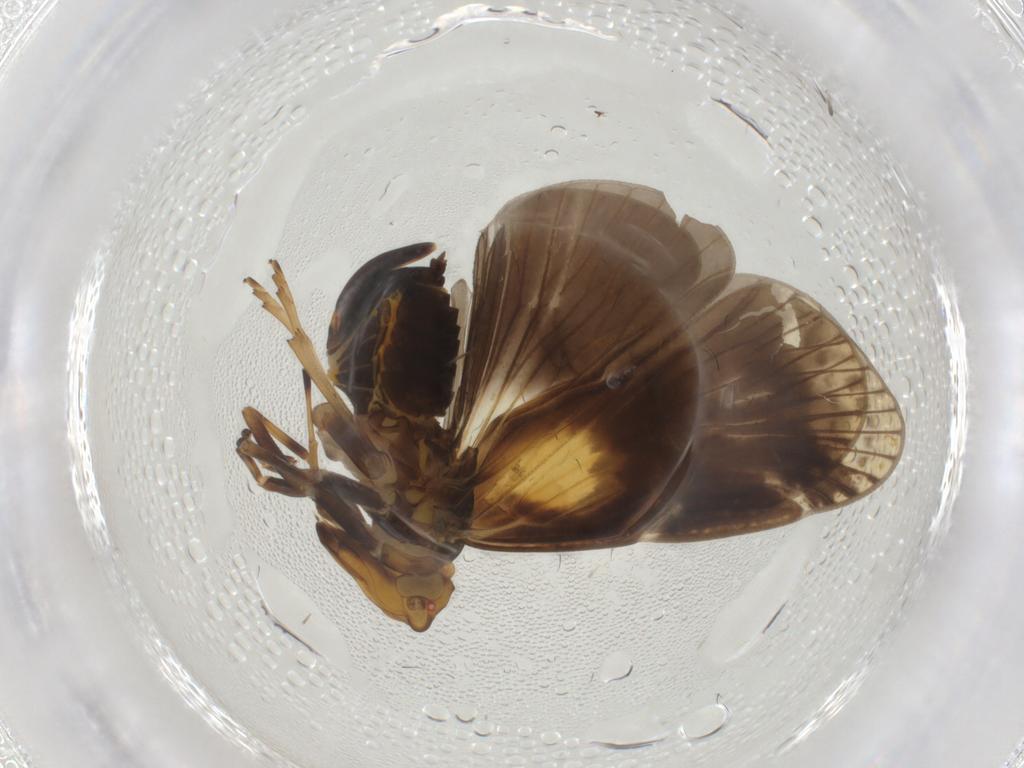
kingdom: Animalia
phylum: Arthropoda
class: Insecta
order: Hemiptera
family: Cixiidae
